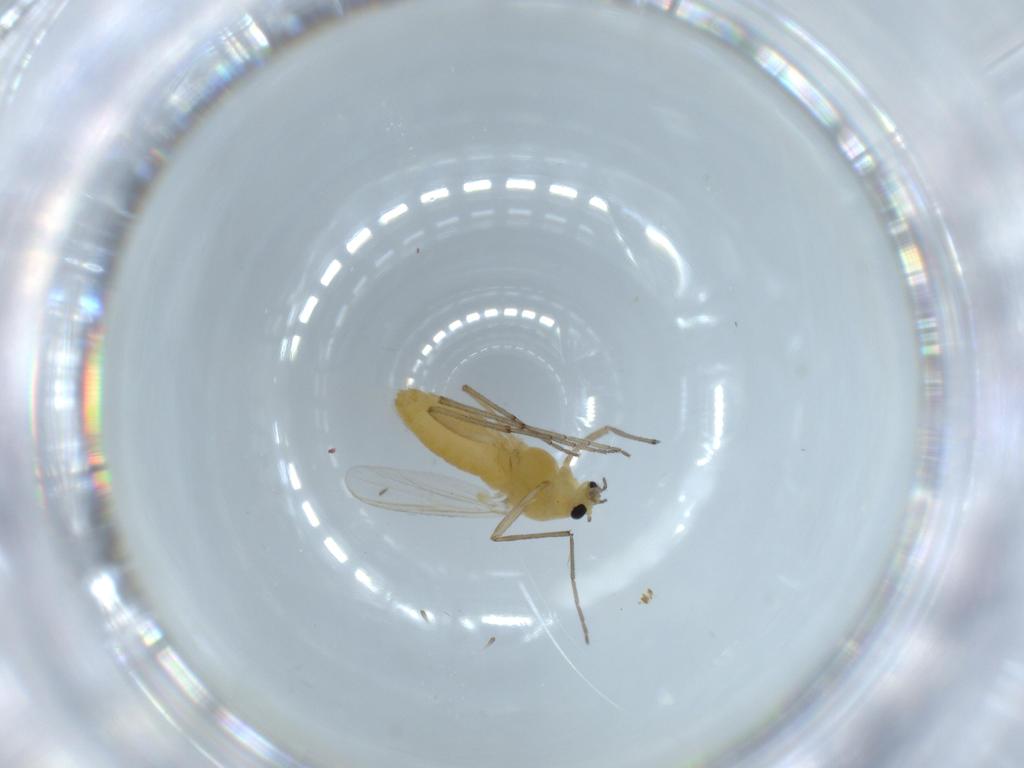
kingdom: Animalia
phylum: Arthropoda
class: Insecta
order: Diptera
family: Chironomidae
